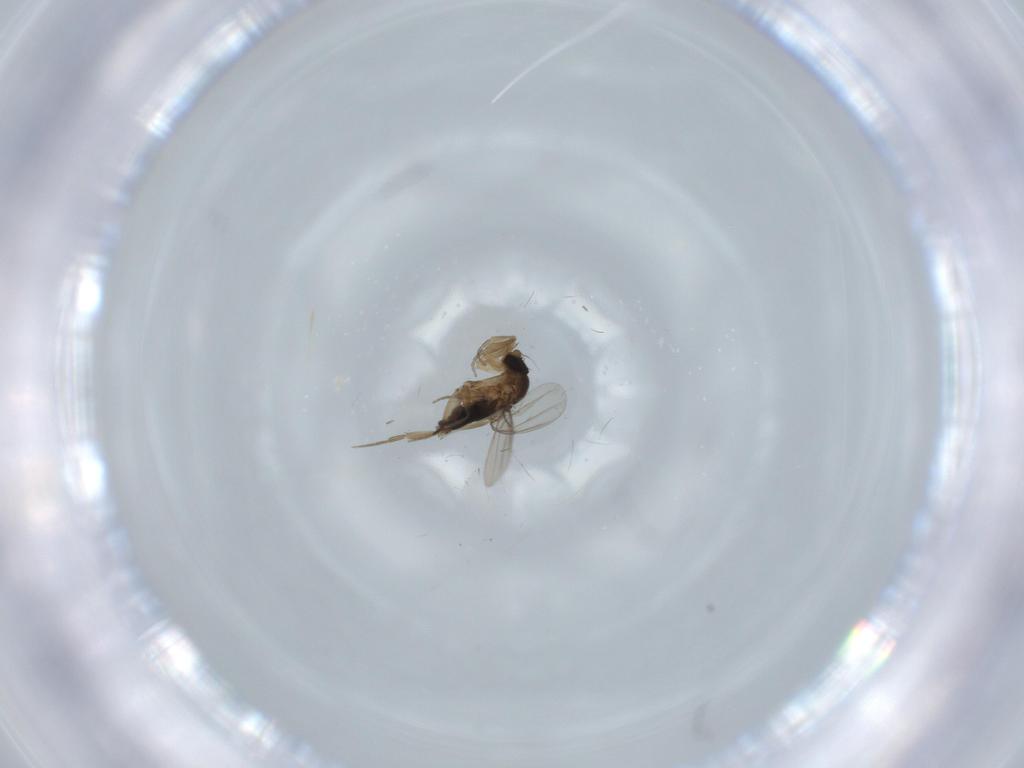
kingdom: Animalia
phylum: Arthropoda
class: Insecta
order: Diptera
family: Phoridae
